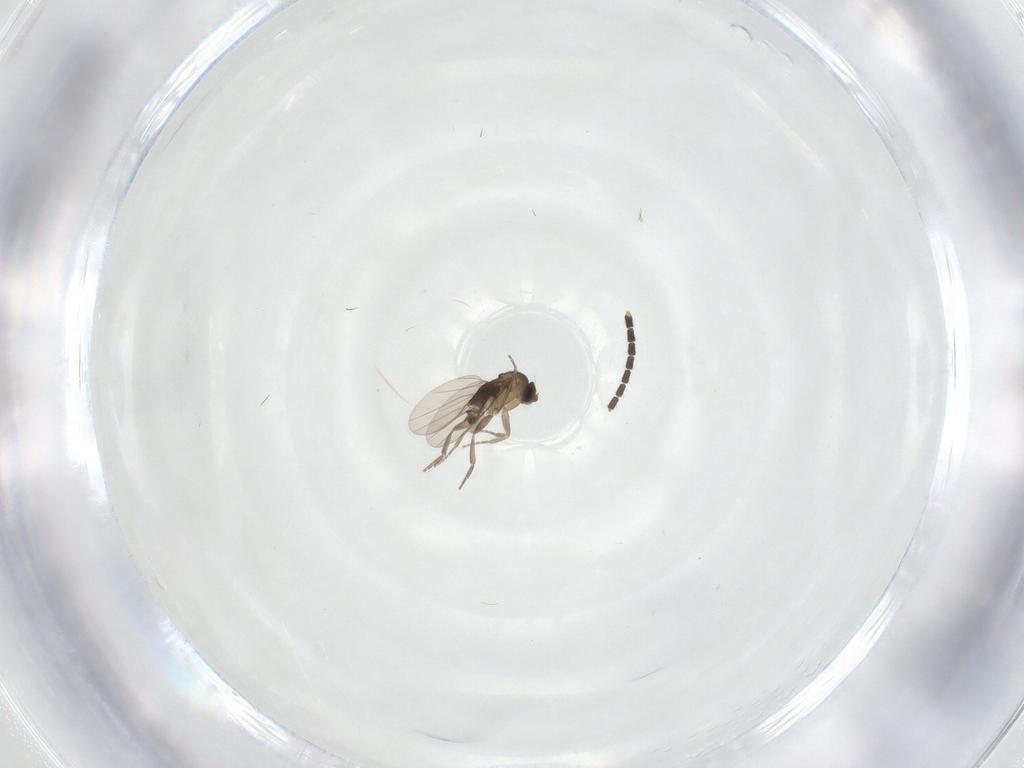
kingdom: Animalia
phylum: Arthropoda
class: Insecta
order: Diptera
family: Phoridae
